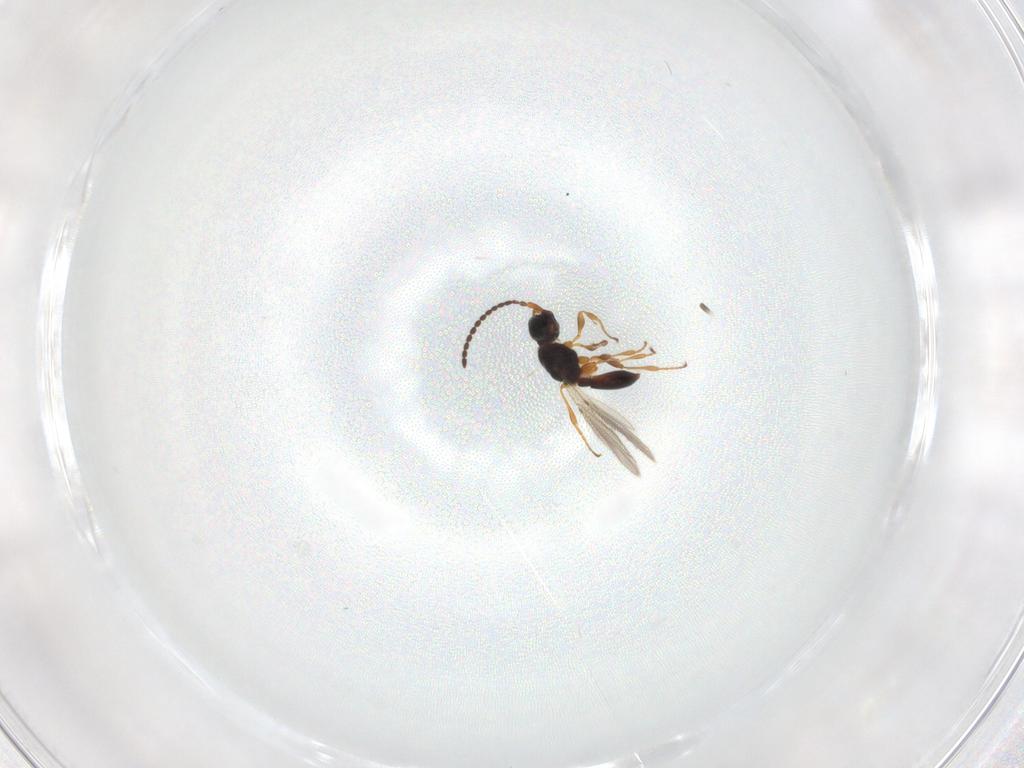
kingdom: Animalia
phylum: Arthropoda
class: Insecta
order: Hymenoptera
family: Diapriidae
